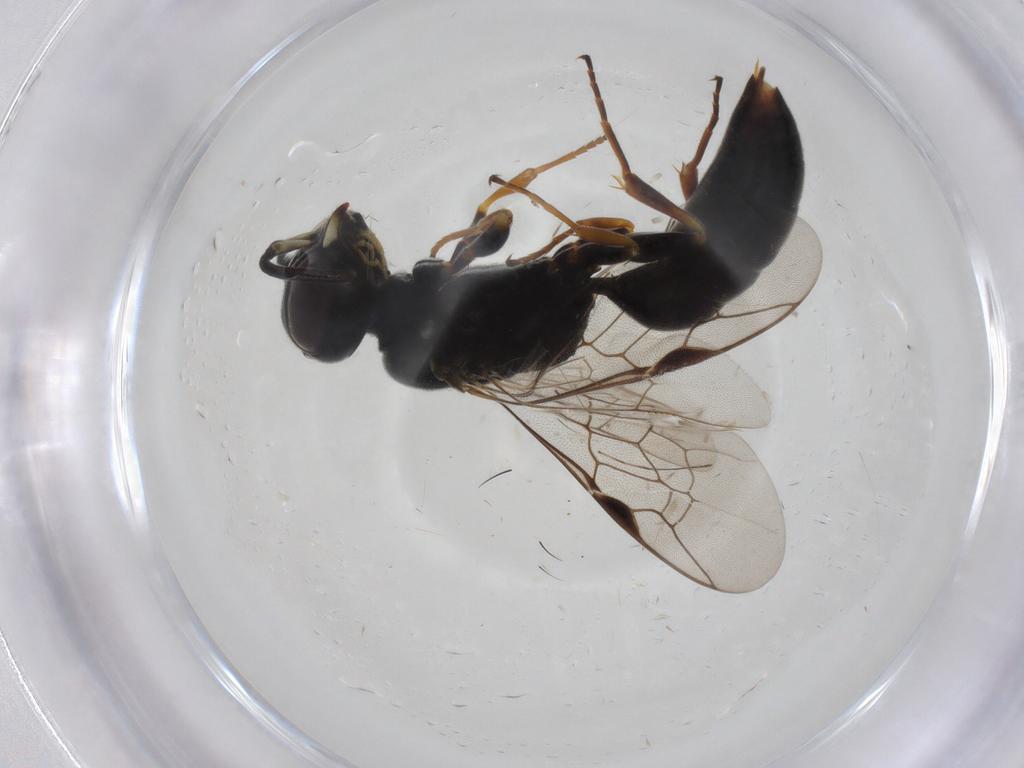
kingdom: Animalia
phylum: Arthropoda
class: Insecta
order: Hymenoptera
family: Pemphredonidae
